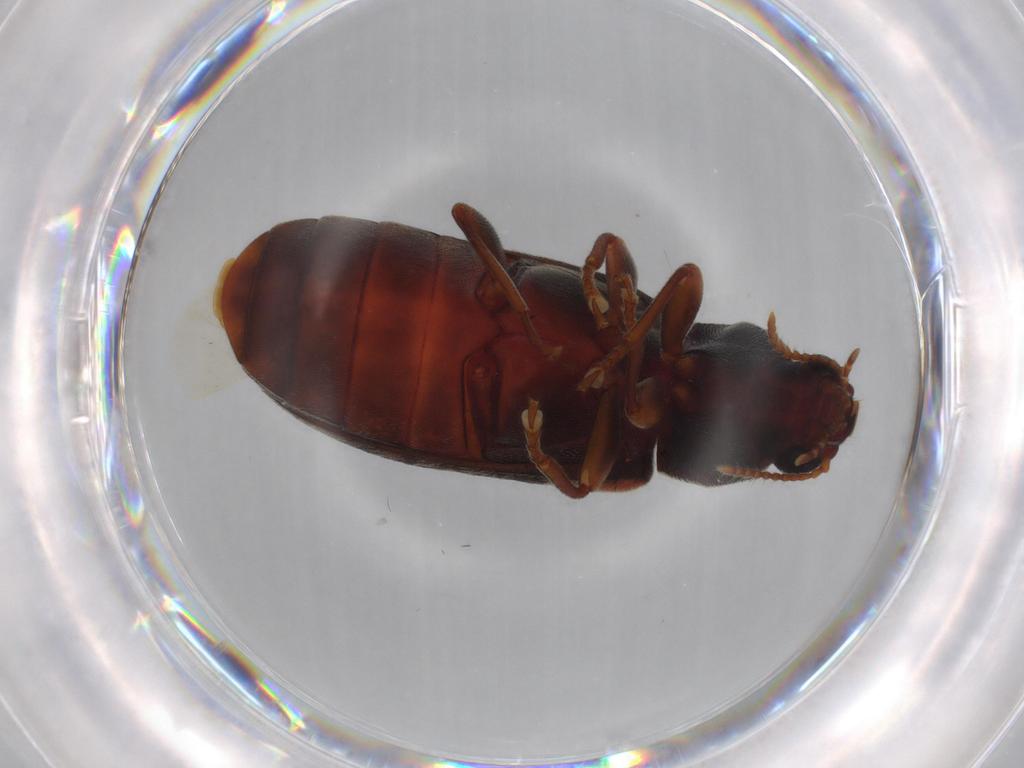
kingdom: Animalia
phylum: Arthropoda
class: Insecta
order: Coleoptera
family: Mycteridae
